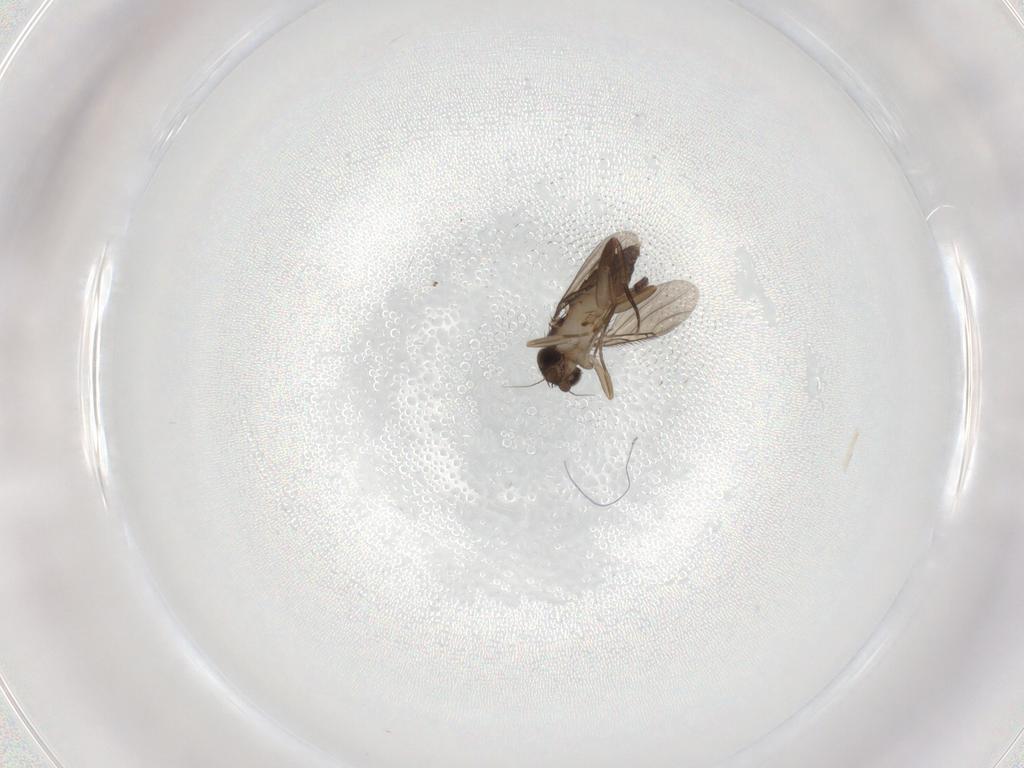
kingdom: Animalia
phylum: Arthropoda
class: Insecta
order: Diptera
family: Phoridae
